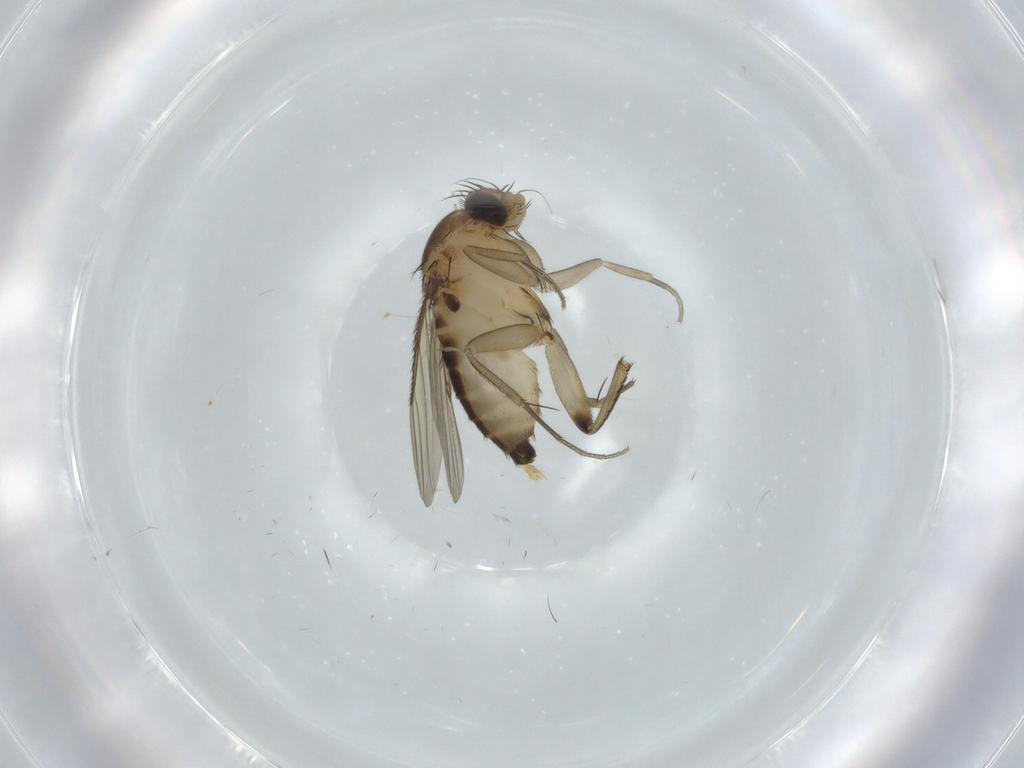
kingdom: Animalia
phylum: Arthropoda
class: Insecta
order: Diptera
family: Phoridae
